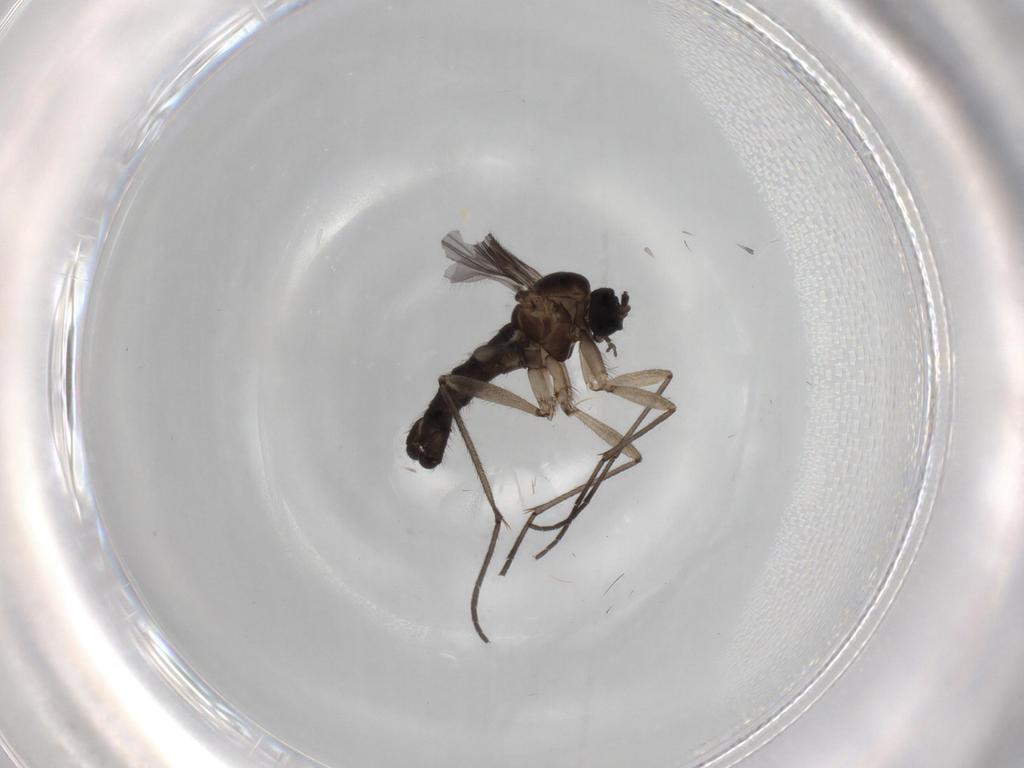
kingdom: Animalia
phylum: Arthropoda
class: Insecta
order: Diptera
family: Sciaridae
